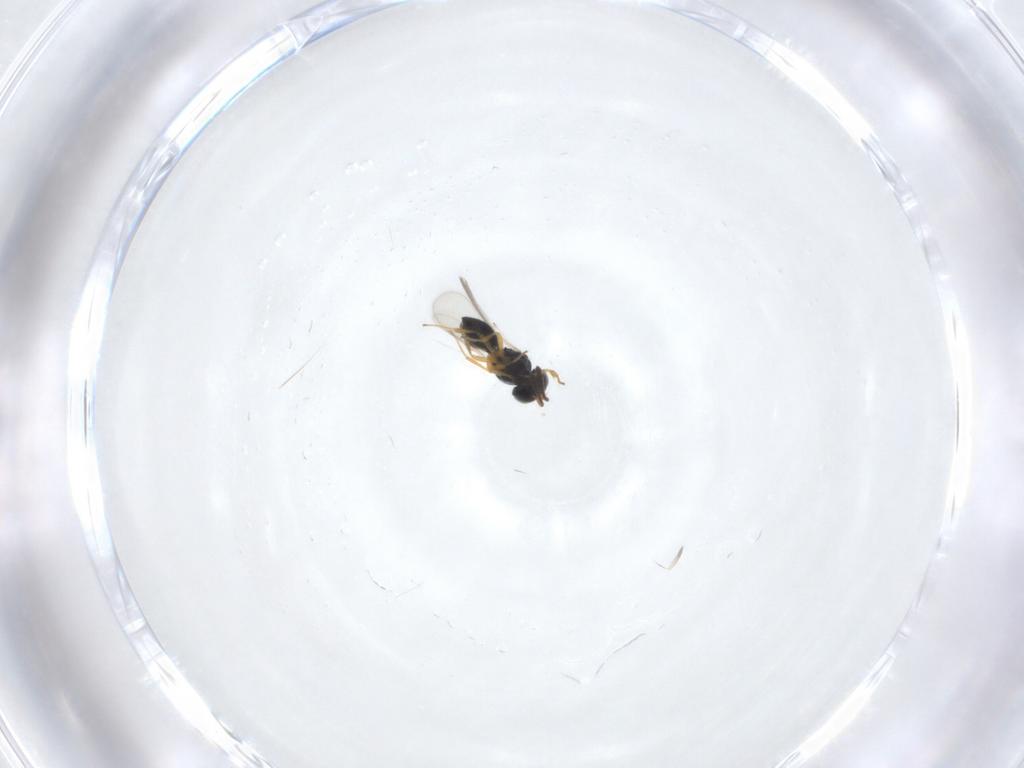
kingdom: Animalia
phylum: Arthropoda
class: Insecta
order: Hymenoptera
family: Scelionidae
